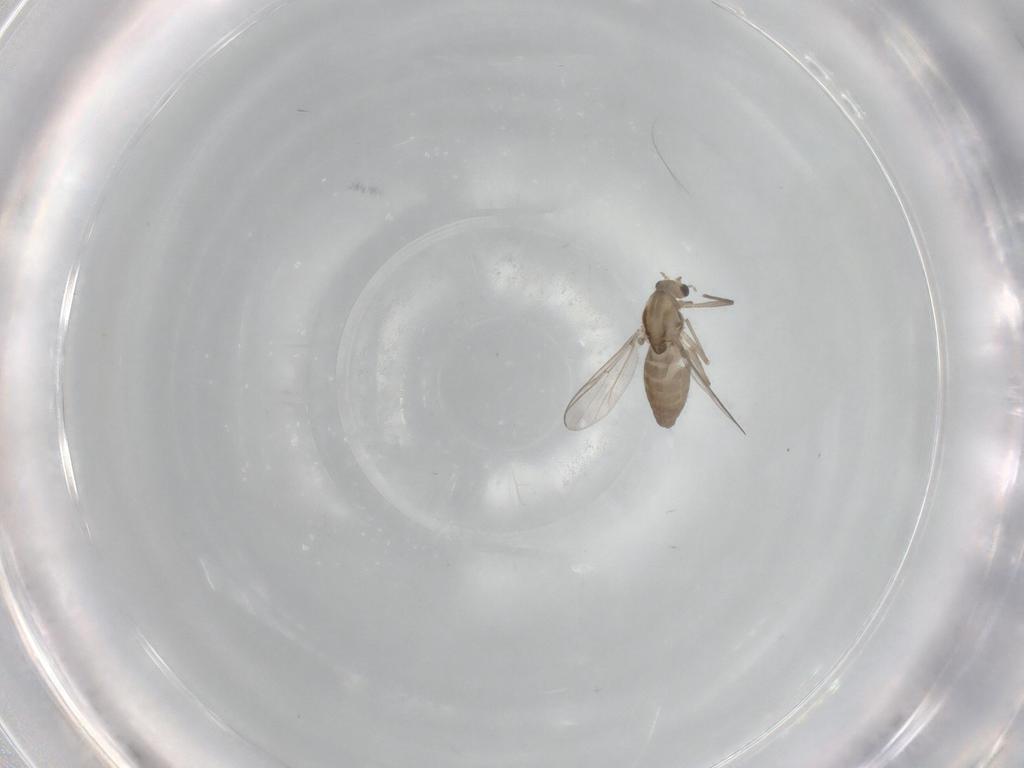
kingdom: Animalia
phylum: Arthropoda
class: Insecta
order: Diptera
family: Chironomidae
